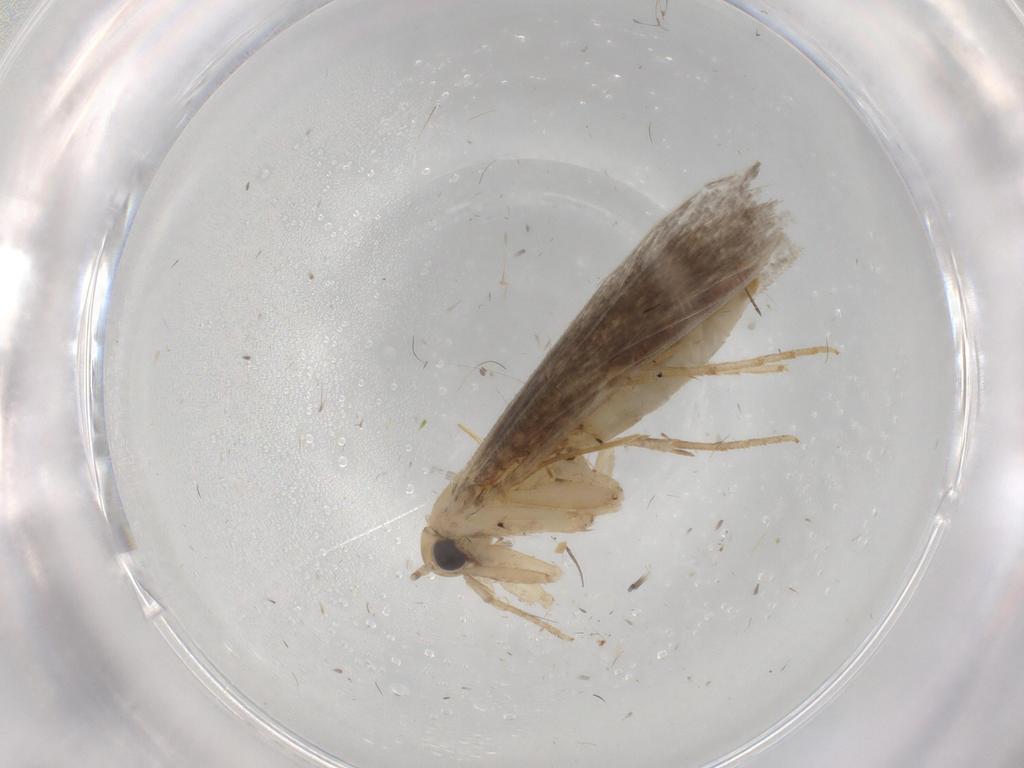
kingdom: Animalia
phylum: Arthropoda
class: Insecta
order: Lepidoptera
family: Tineidae
